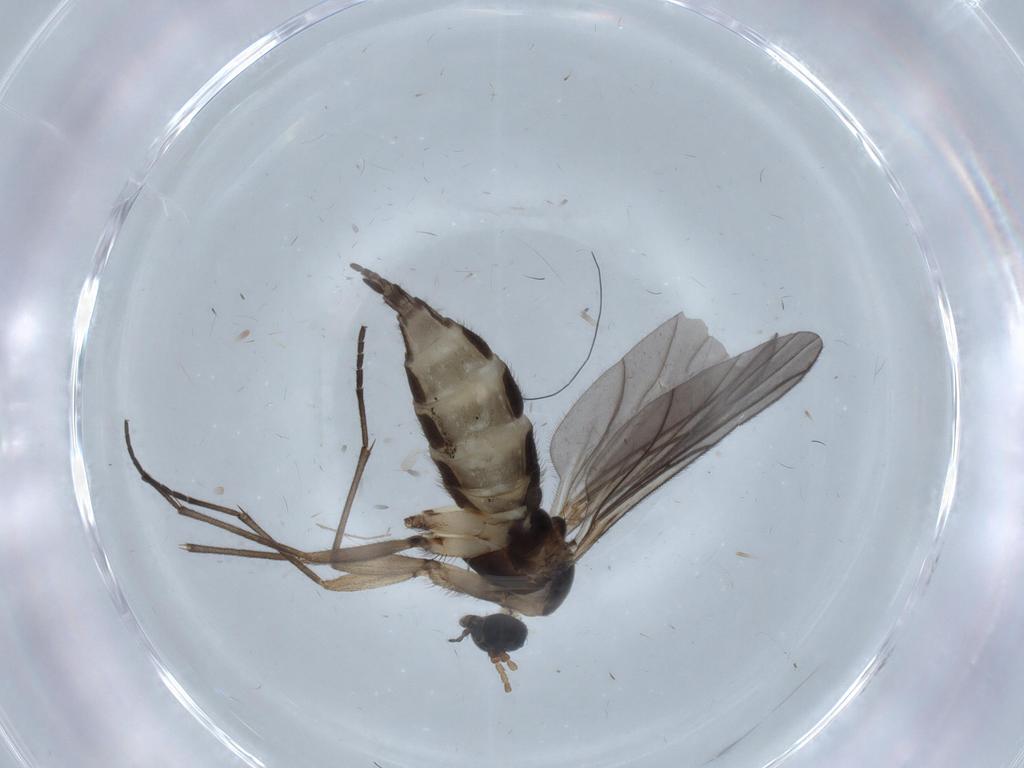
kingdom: Animalia
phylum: Arthropoda
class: Insecta
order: Diptera
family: Sciaridae
